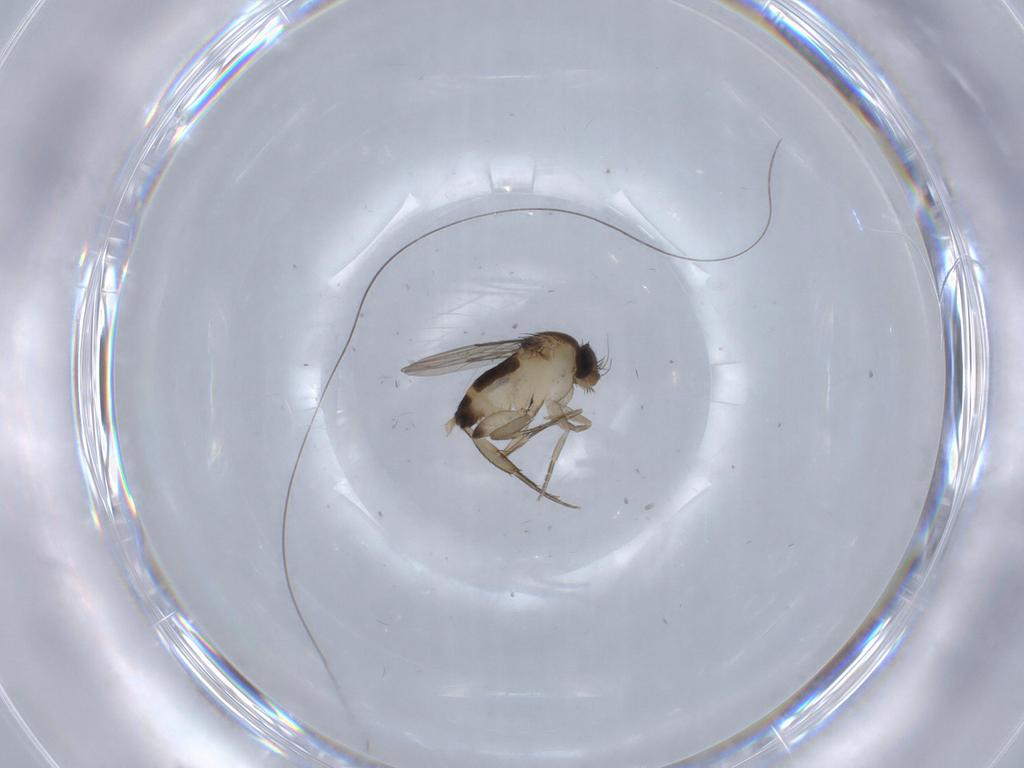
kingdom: Animalia
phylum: Arthropoda
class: Insecta
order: Diptera
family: Phoridae
